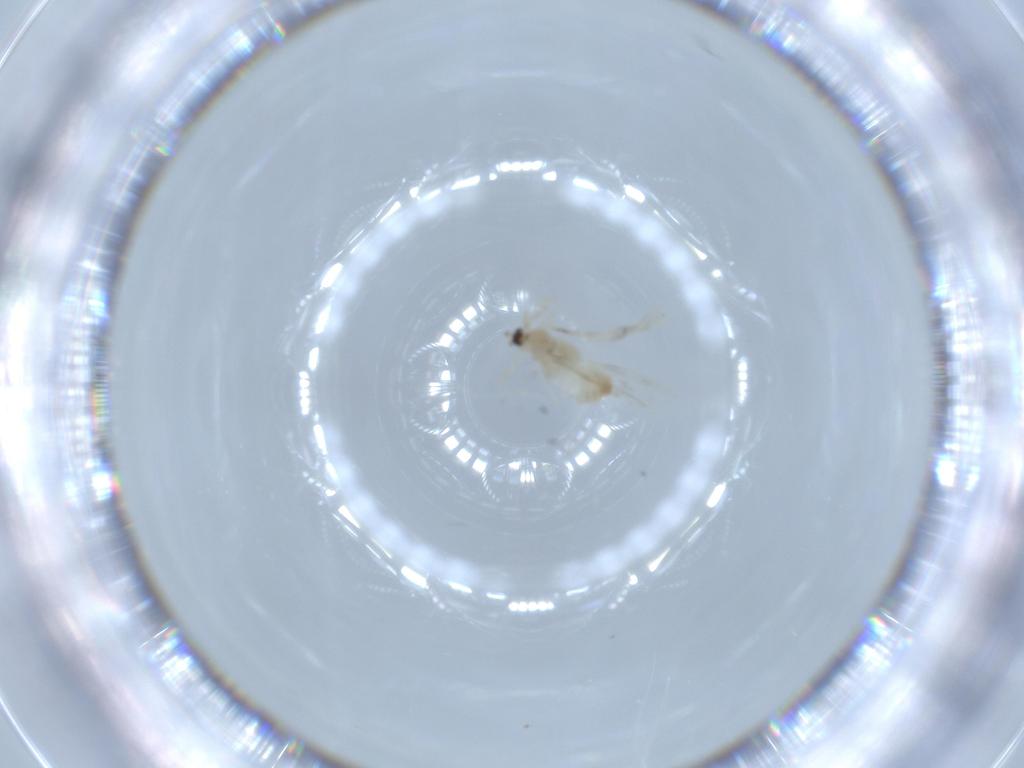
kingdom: Animalia
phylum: Arthropoda
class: Insecta
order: Diptera
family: Cecidomyiidae
